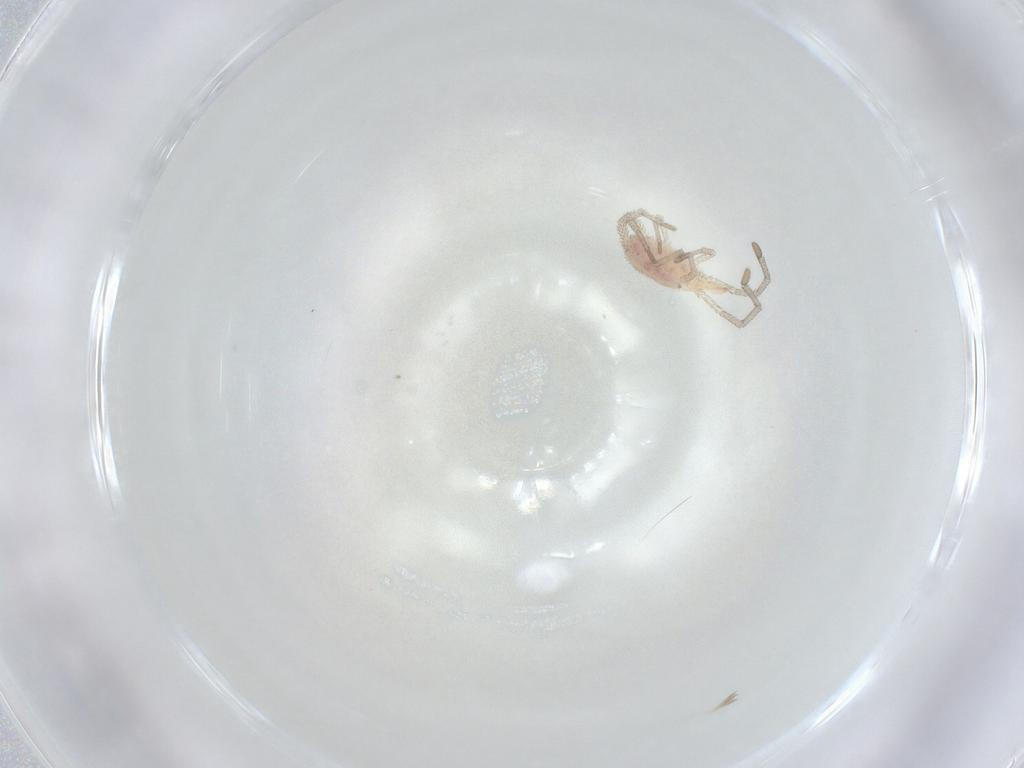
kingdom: Animalia
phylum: Arthropoda
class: Arachnida
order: Trombidiformes
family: Smarididae
